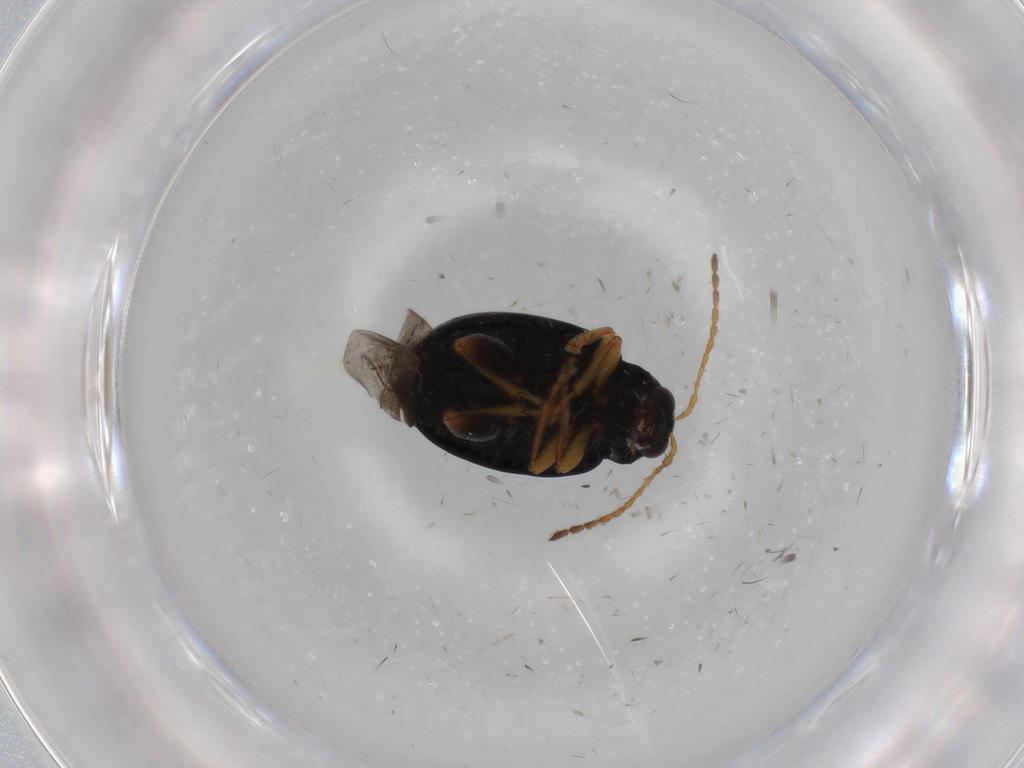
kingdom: Animalia
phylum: Arthropoda
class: Insecta
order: Coleoptera
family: Chrysomelidae
